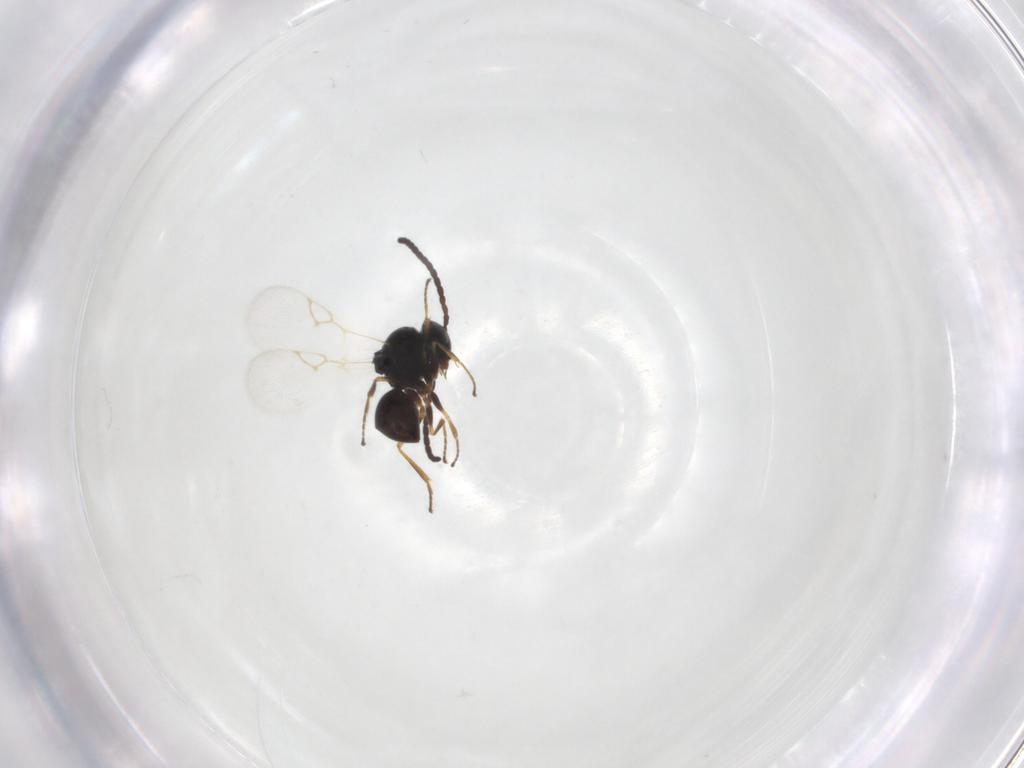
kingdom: Animalia
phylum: Arthropoda
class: Insecta
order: Hymenoptera
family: Figitidae
